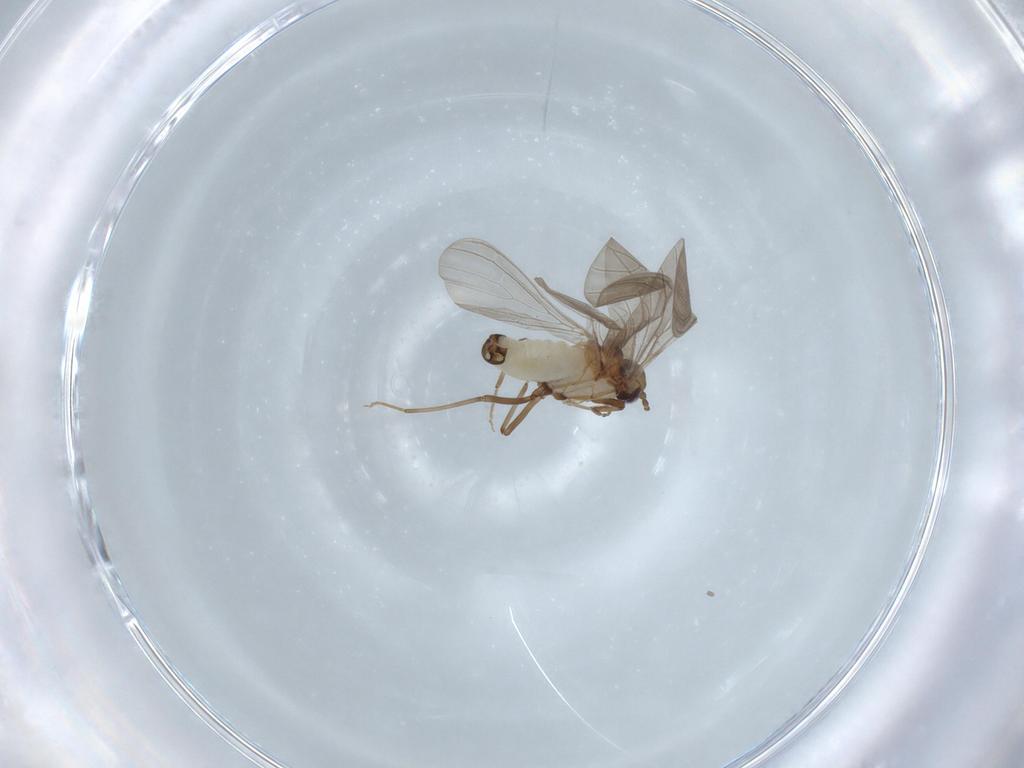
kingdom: Animalia
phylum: Arthropoda
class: Insecta
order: Neuroptera
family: Coniopterygidae
